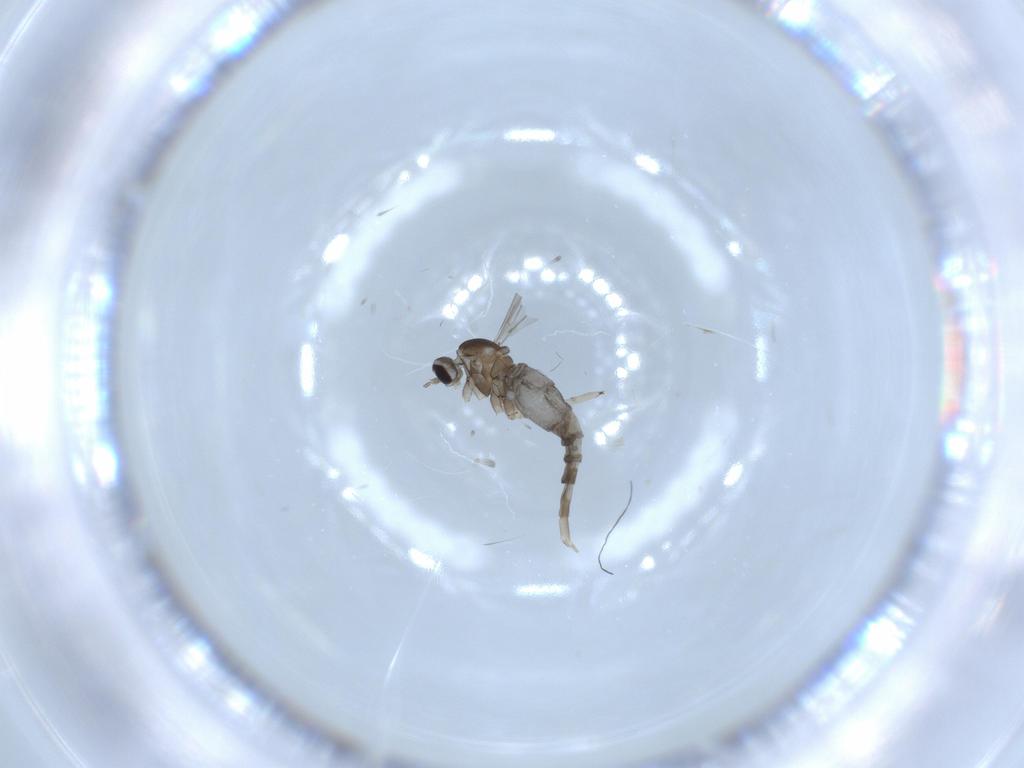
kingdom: Animalia
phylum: Arthropoda
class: Insecta
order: Diptera
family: Cecidomyiidae
